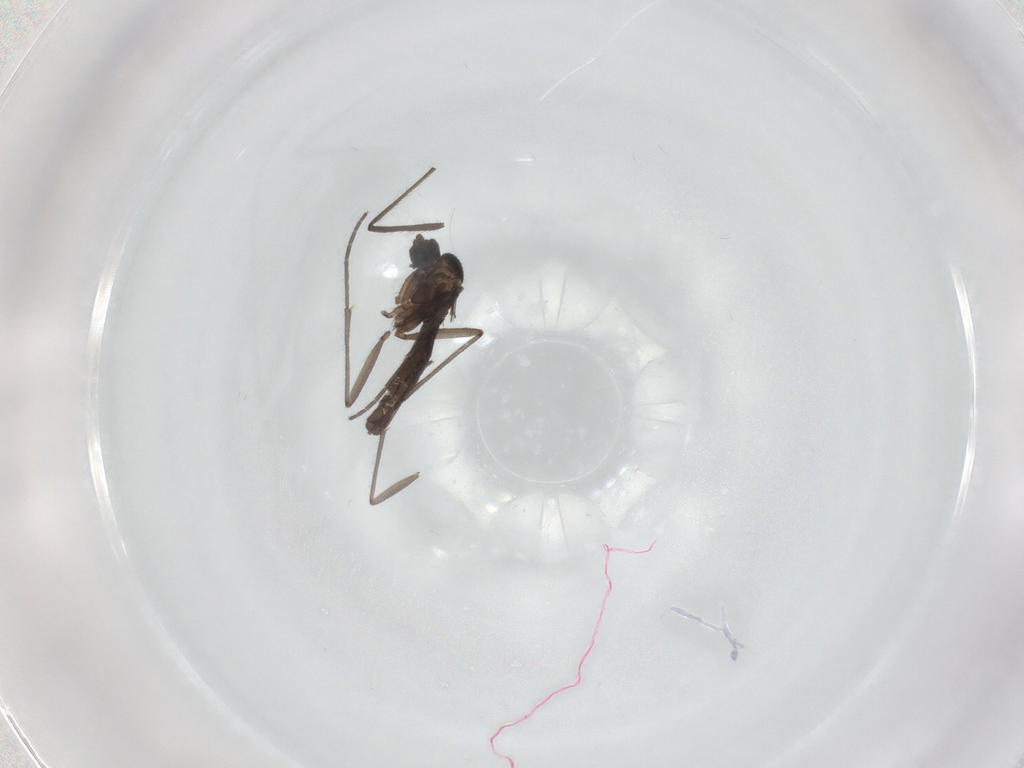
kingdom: Animalia
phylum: Arthropoda
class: Insecta
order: Diptera
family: Sciaridae
